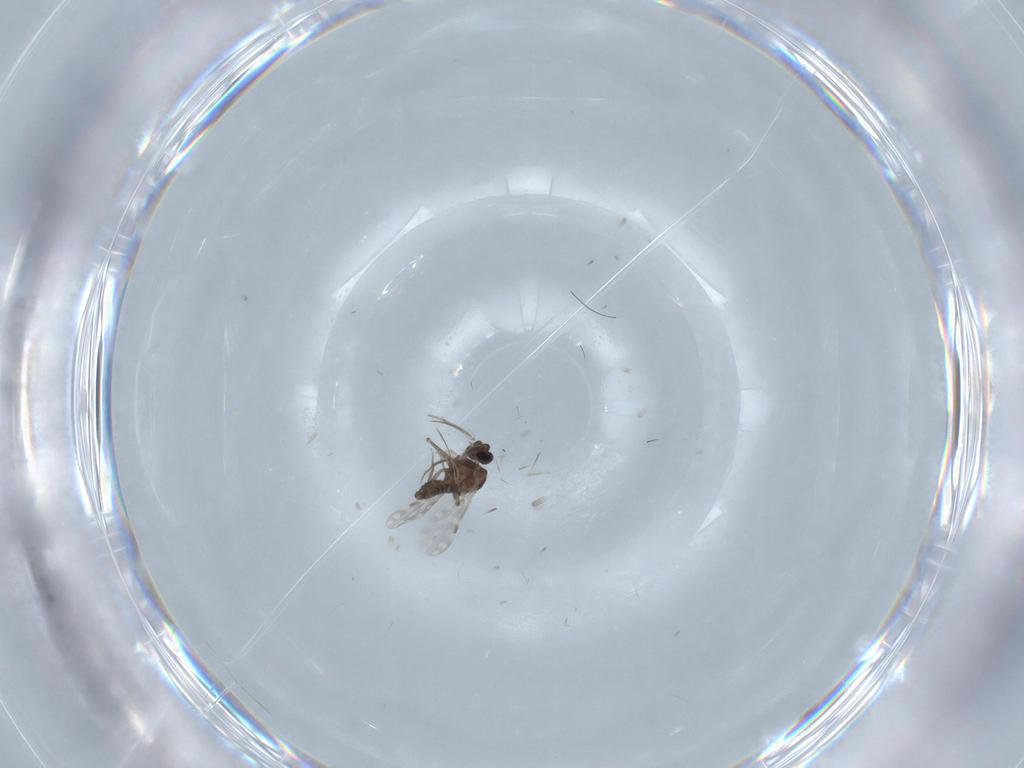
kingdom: Animalia
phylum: Arthropoda
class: Insecta
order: Diptera
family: Ceratopogonidae
